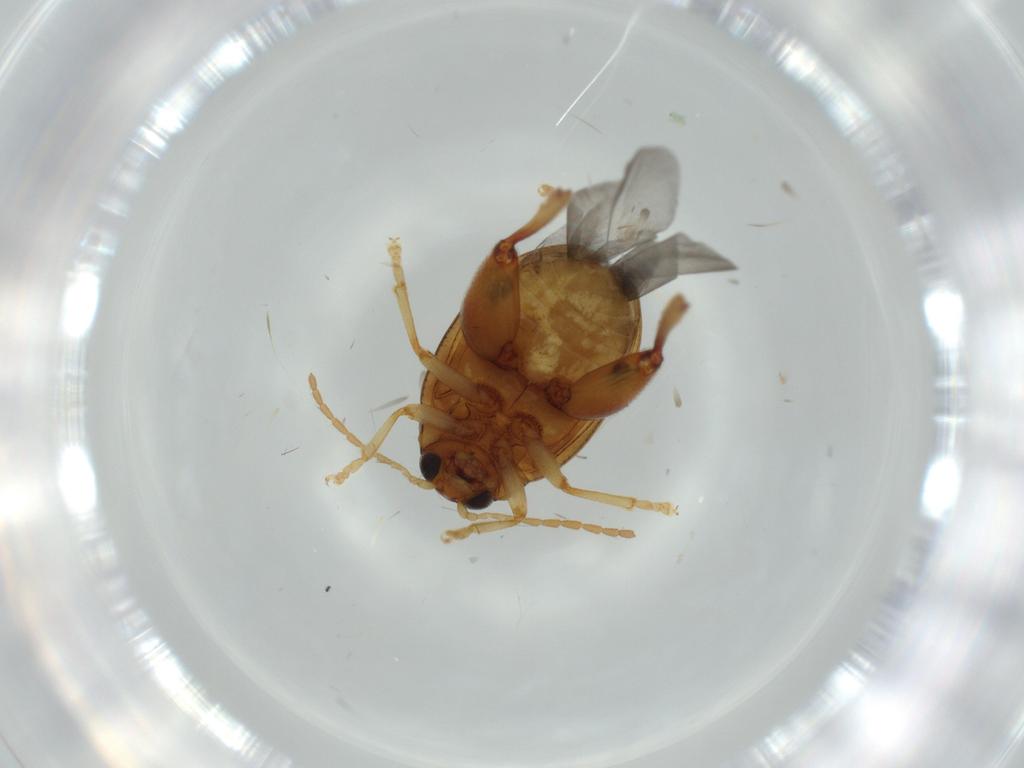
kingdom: Animalia
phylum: Arthropoda
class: Insecta
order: Coleoptera
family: Chrysomelidae
